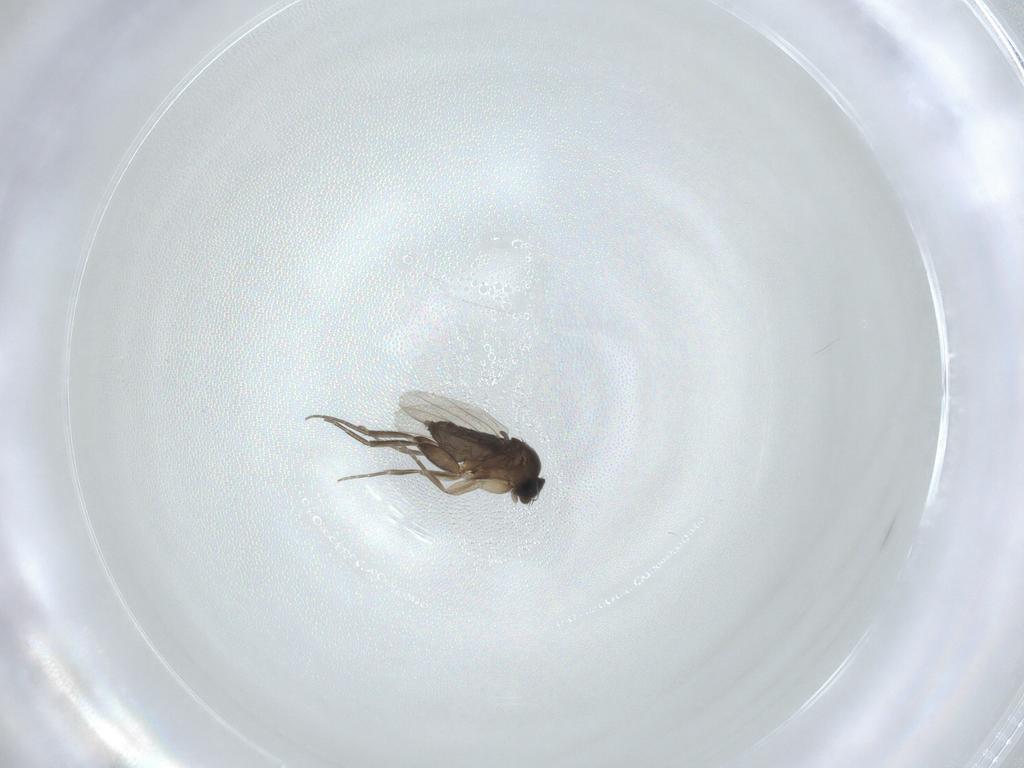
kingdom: Animalia
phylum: Arthropoda
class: Insecta
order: Diptera
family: Phoridae
